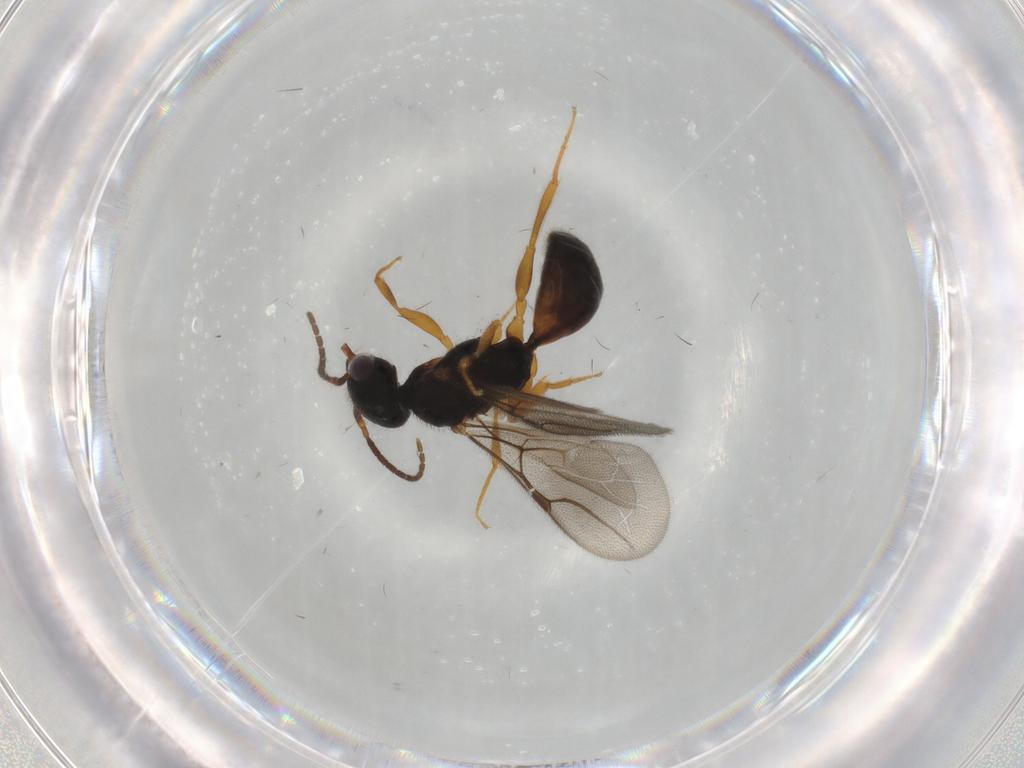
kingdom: Animalia
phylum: Arthropoda
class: Insecta
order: Hymenoptera
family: Bethylidae
